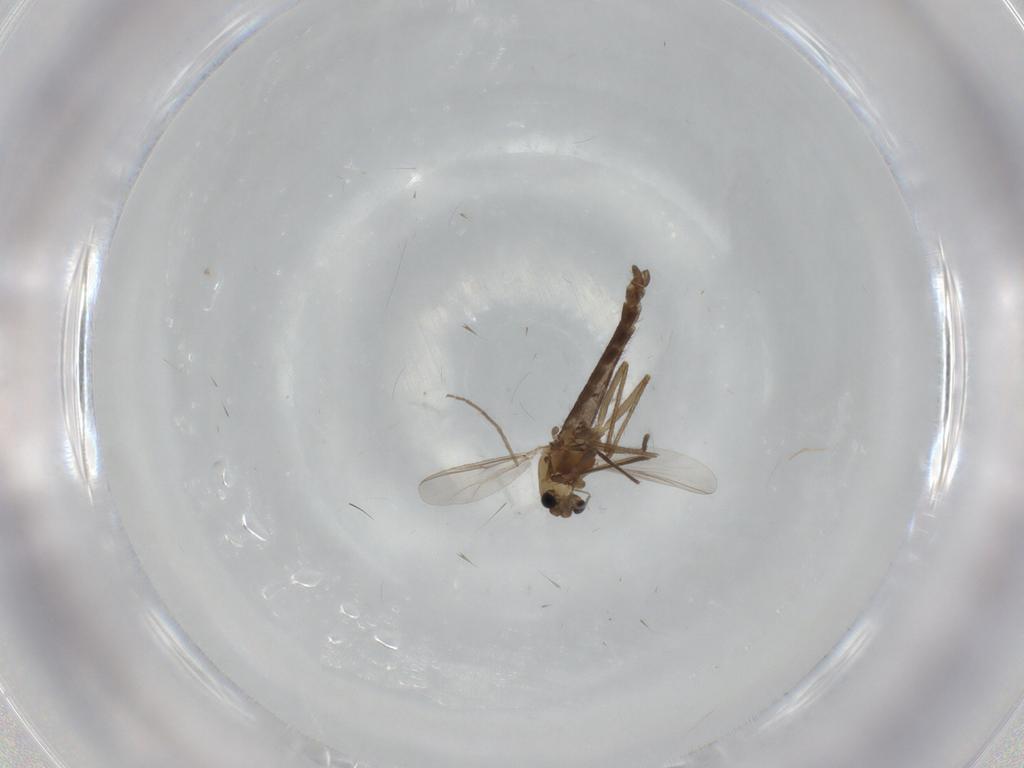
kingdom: Animalia
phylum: Arthropoda
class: Insecta
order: Diptera
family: Chironomidae
